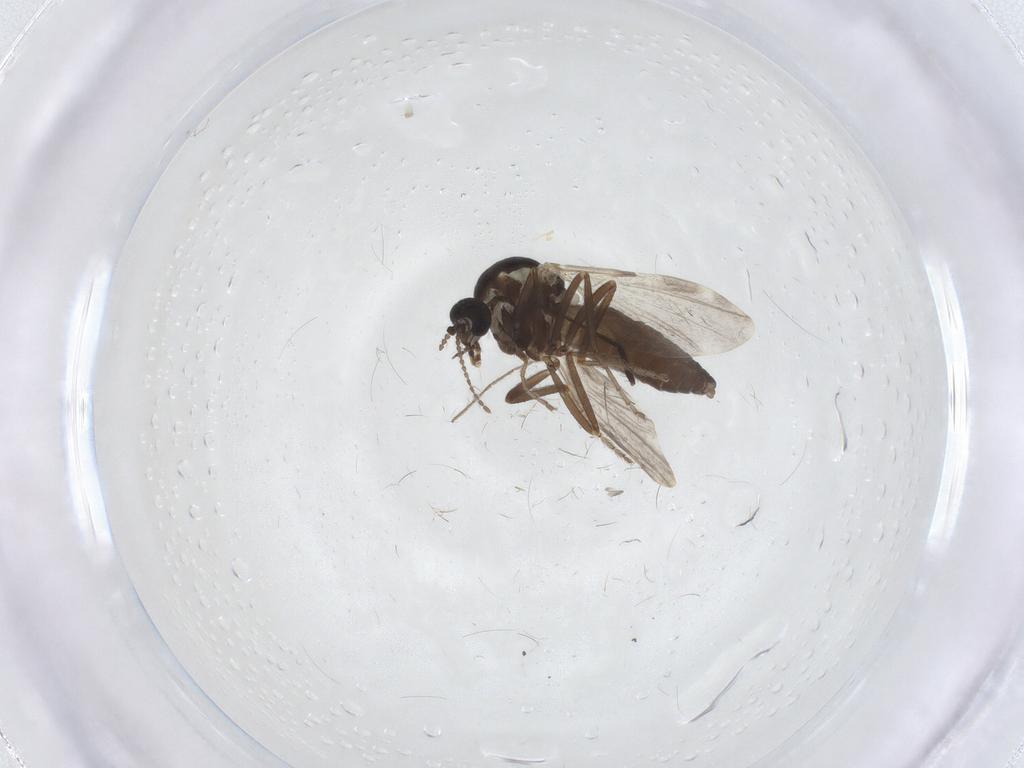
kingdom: Animalia
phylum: Arthropoda
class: Insecta
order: Diptera
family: Ceratopogonidae
